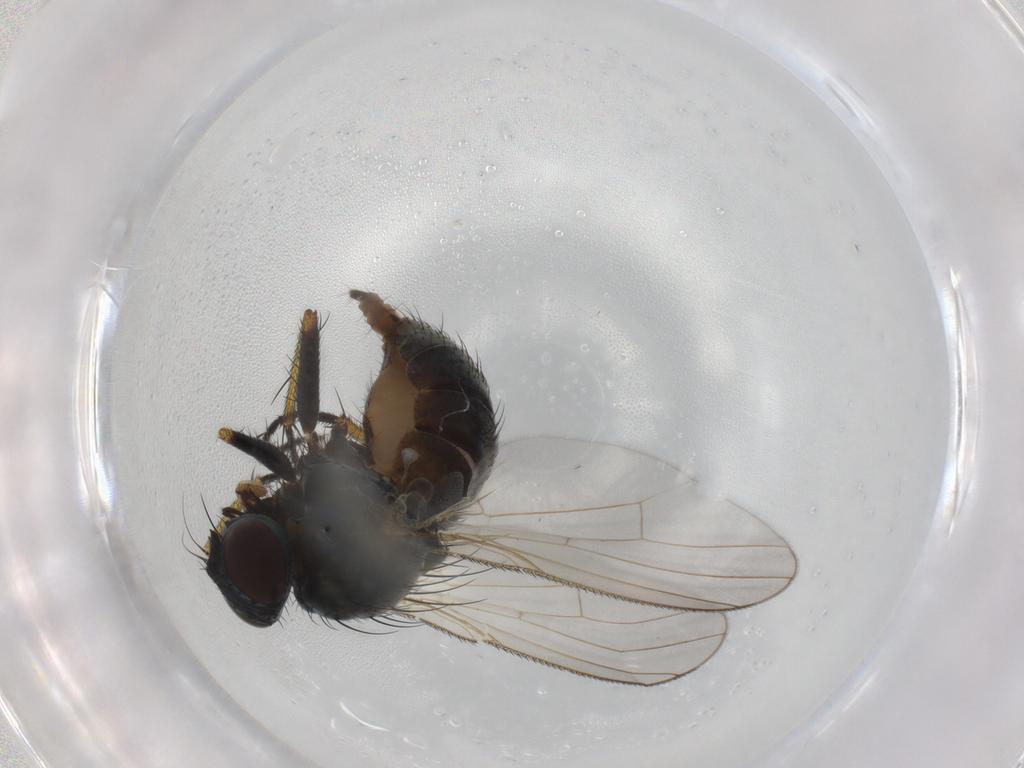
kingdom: Animalia
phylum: Arthropoda
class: Insecta
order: Diptera
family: Muscidae
